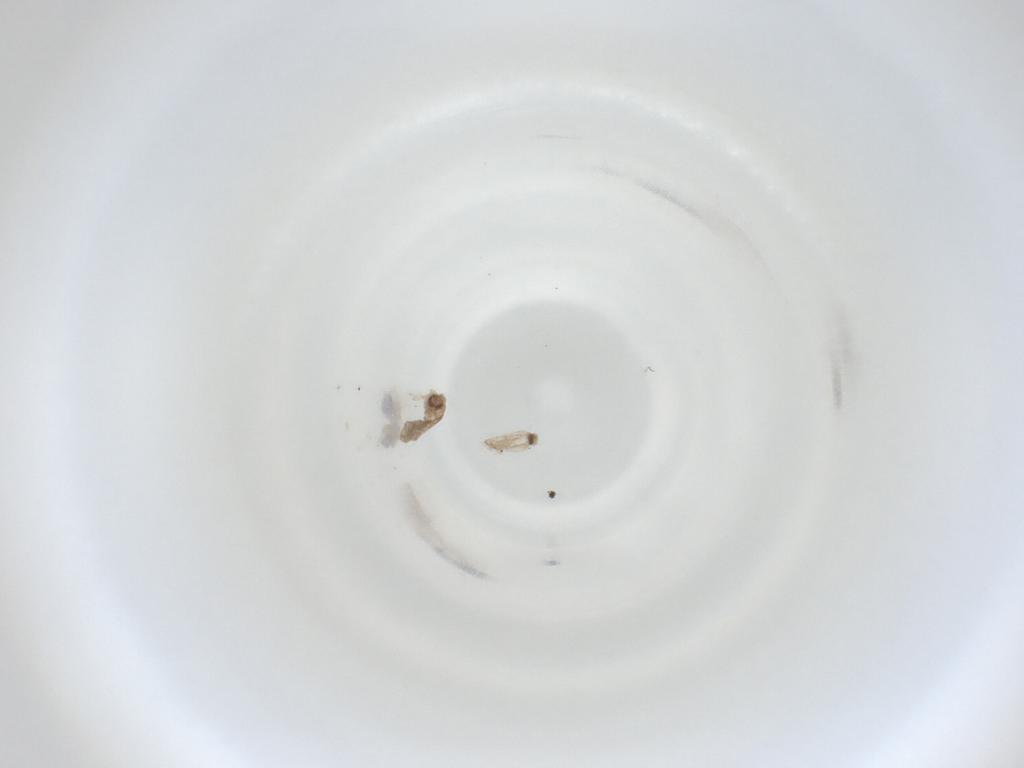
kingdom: Animalia
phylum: Arthropoda
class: Insecta
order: Diptera
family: Cecidomyiidae
